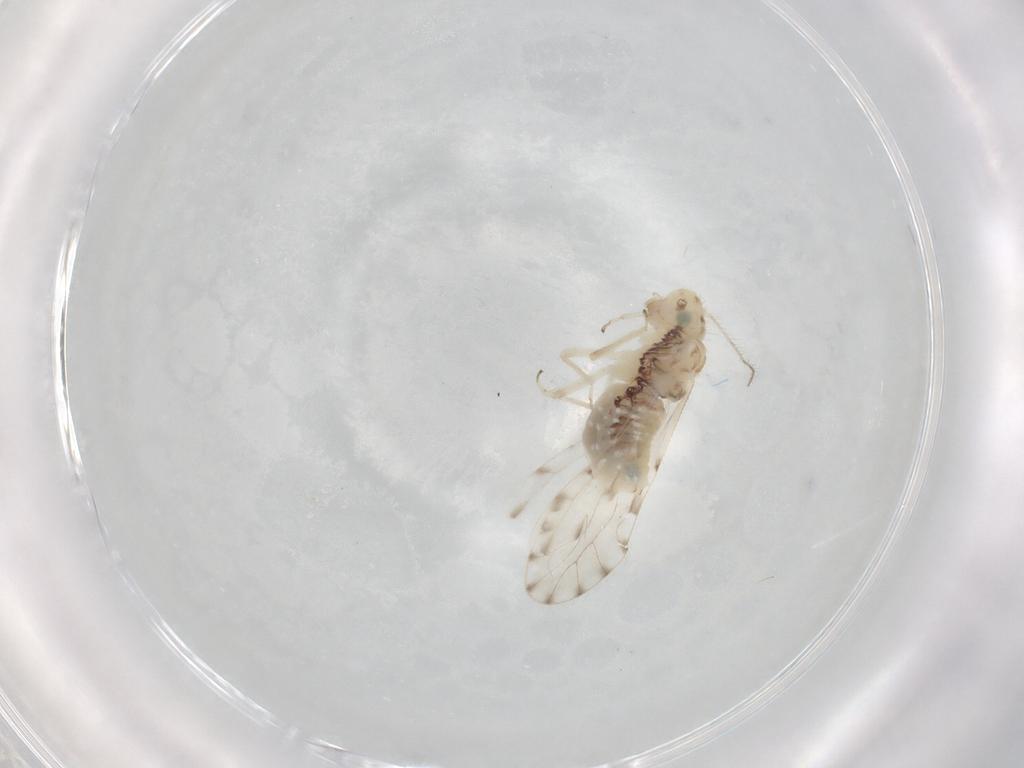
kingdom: Animalia
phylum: Arthropoda
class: Insecta
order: Psocodea
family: Ectopsocidae
